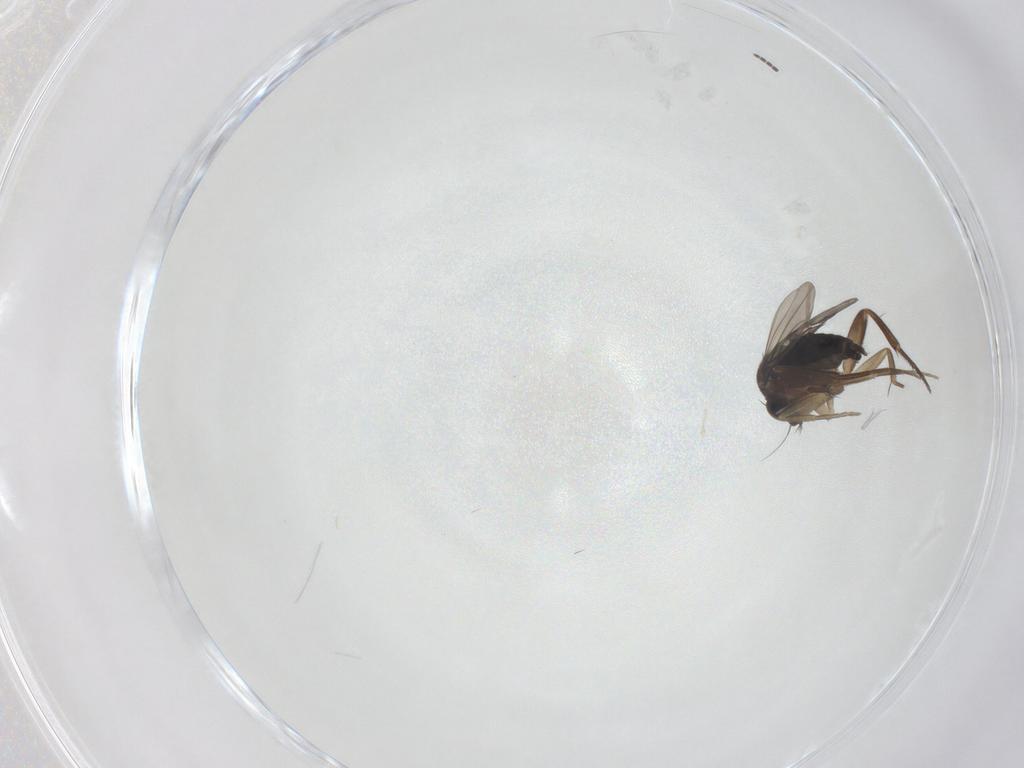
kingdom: Animalia
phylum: Arthropoda
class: Insecta
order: Diptera
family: Phoridae
